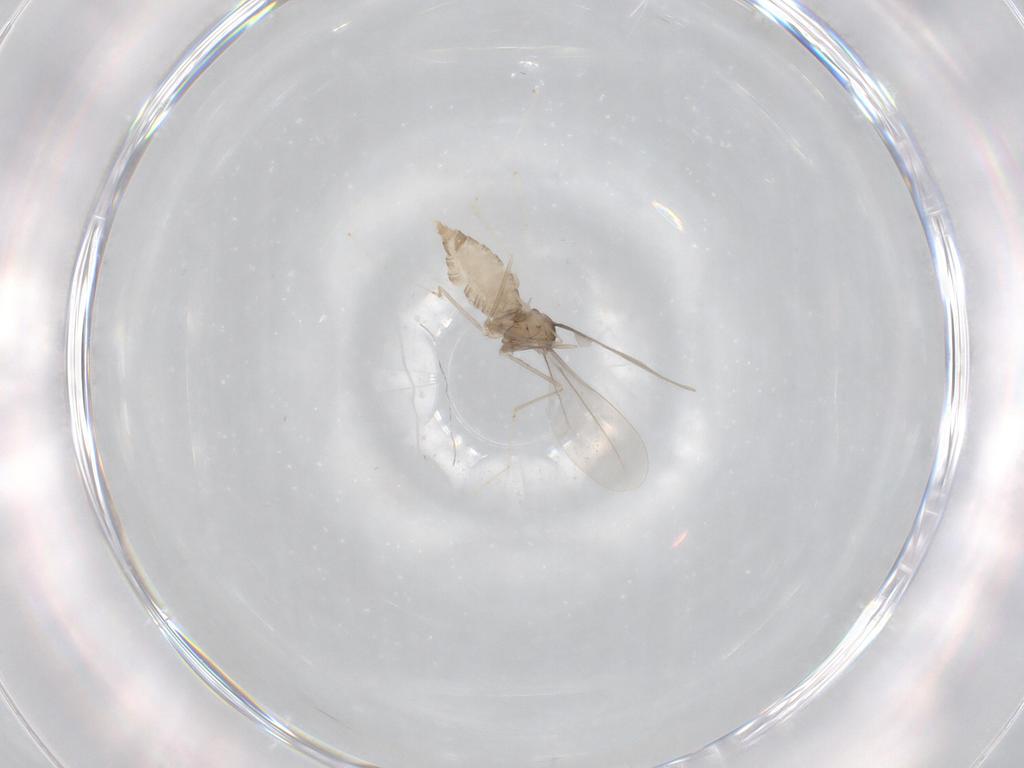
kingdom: Animalia
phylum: Arthropoda
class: Insecta
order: Diptera
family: Cecidomyiidae
